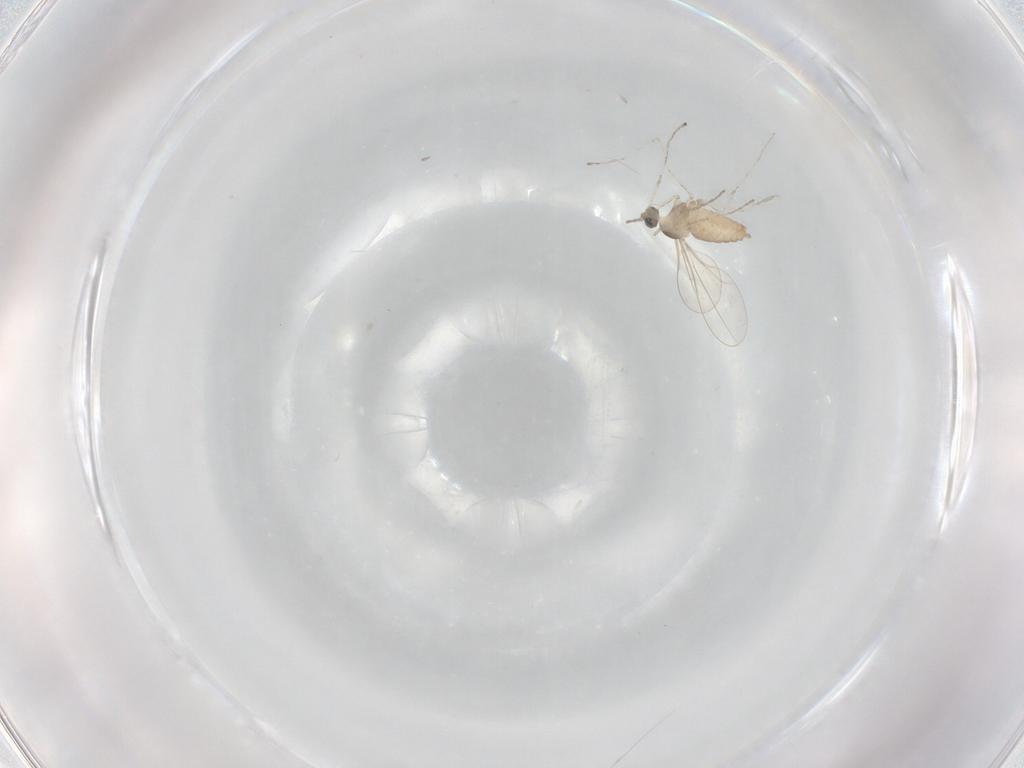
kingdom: Animalia
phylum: Arthropoda
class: Insecta
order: Diptera
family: Cecidomyiidae
